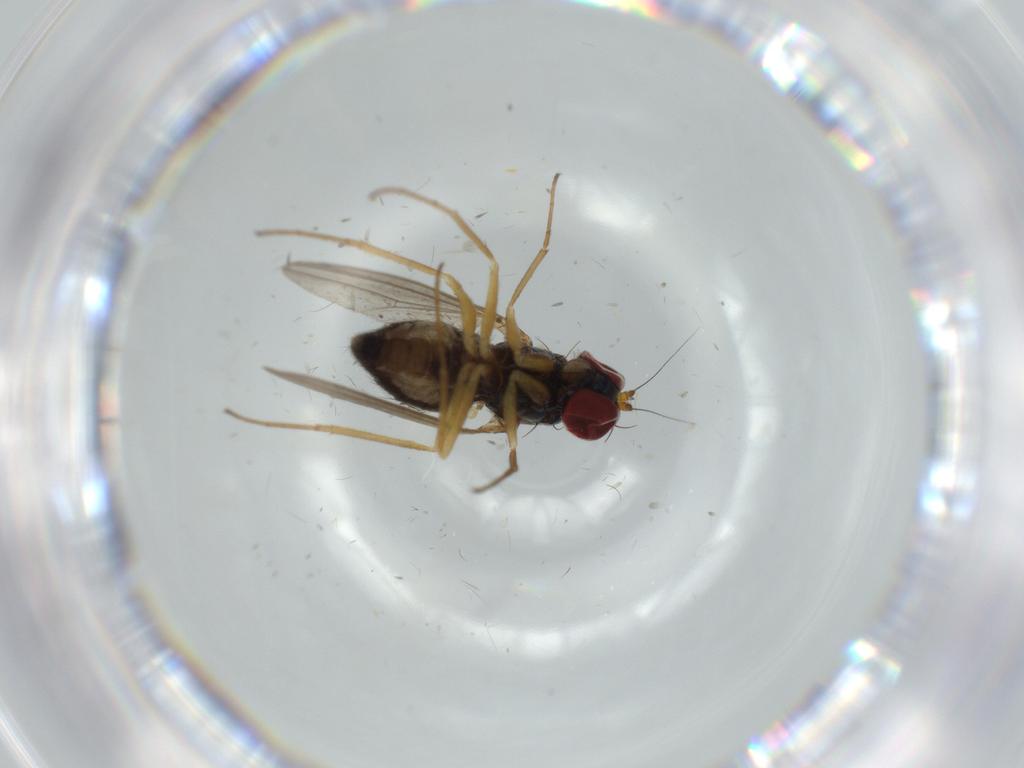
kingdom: Animalia
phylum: Arthropoda
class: Insecta
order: Diptera
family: Dolichopodidae
